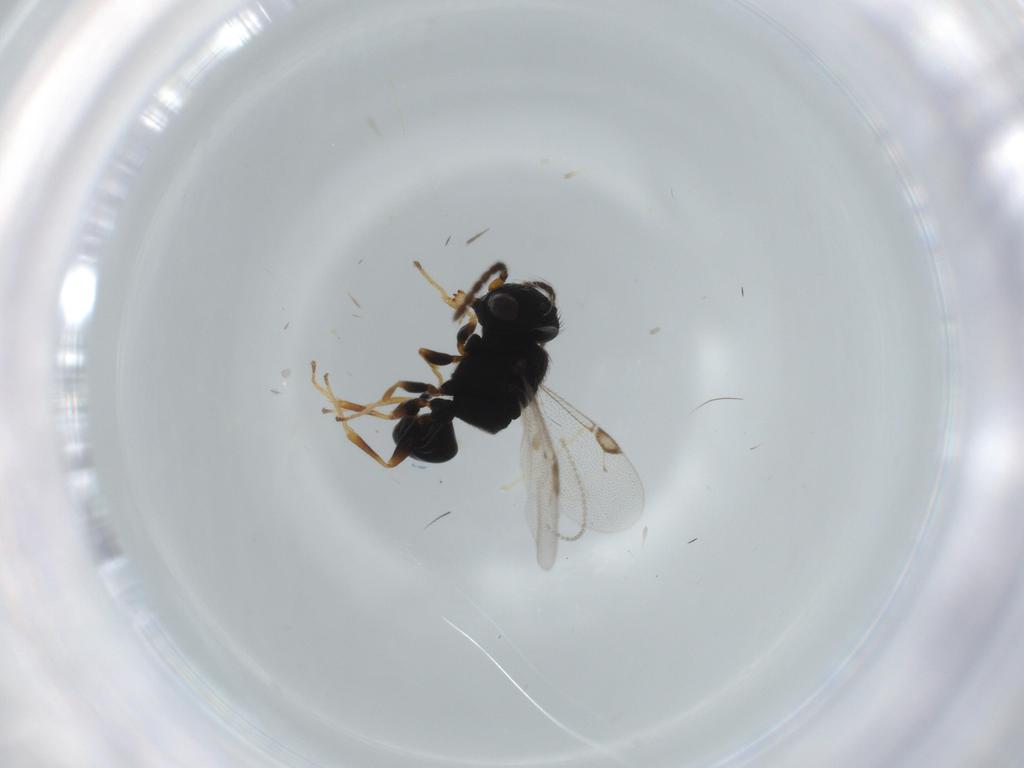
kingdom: Animalia
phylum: Arthropoda
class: Insecta
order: Hymenoptera
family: Dryinidae
